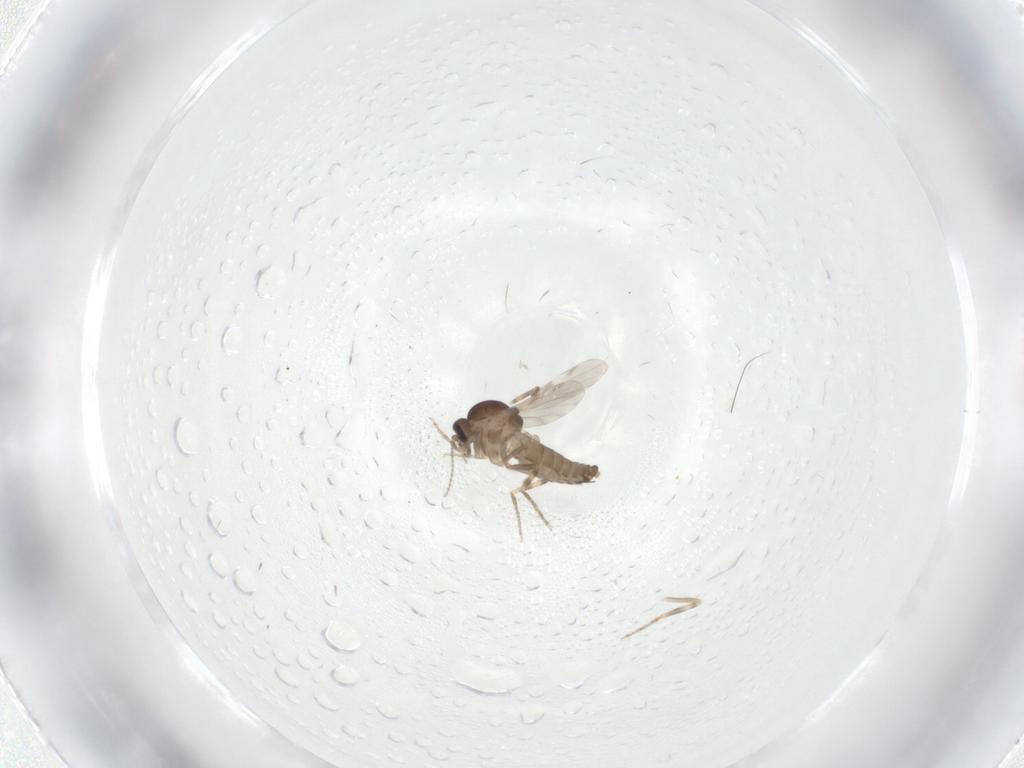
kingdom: Animalia
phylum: Arthropoda
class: Insecta
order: Diptera
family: Ceratopogonidae
